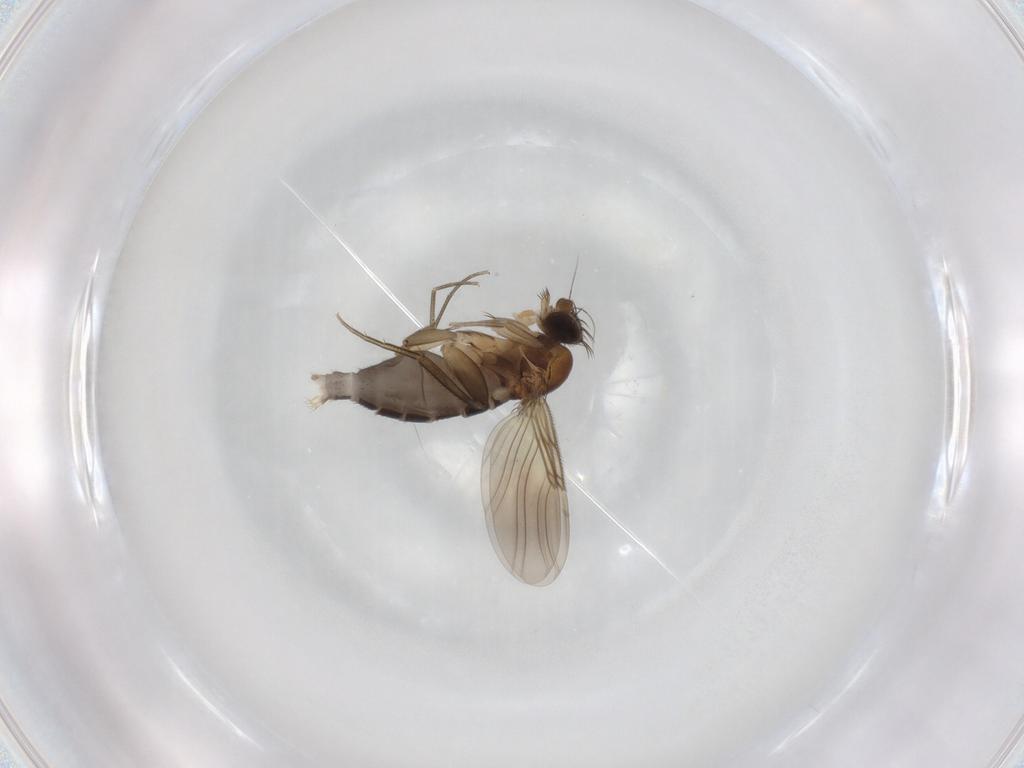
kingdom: Animalia
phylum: Arthropoda
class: Insecta
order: Diptera
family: Phoridae
